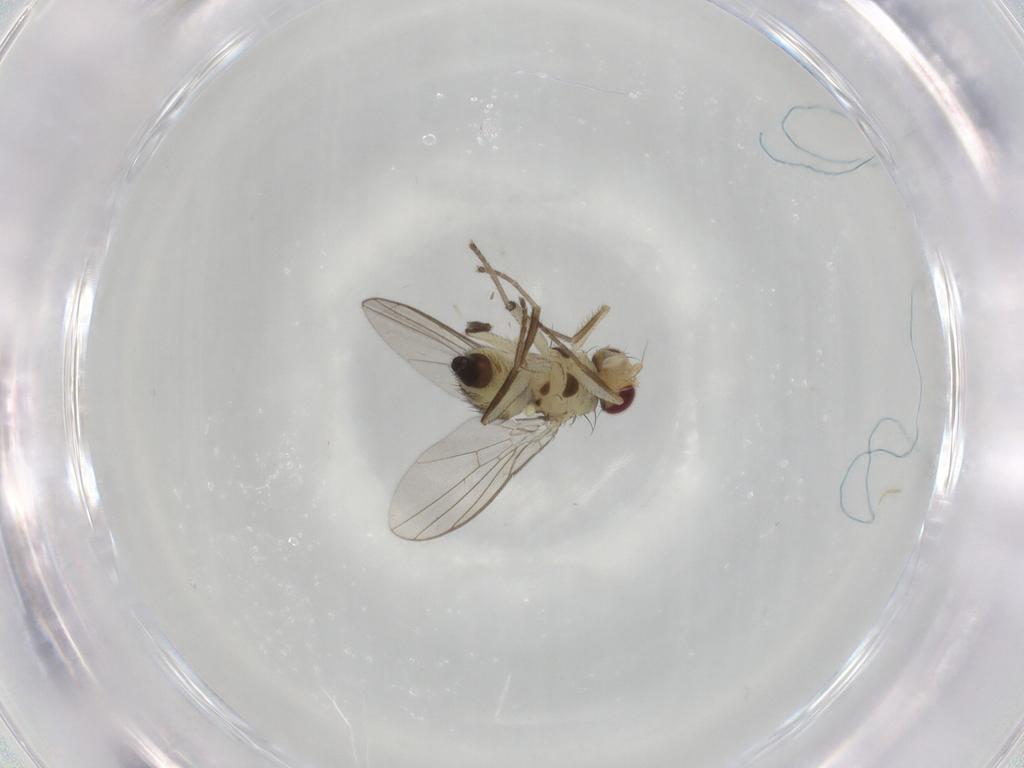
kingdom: Animalia
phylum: Arthropoda
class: Insecta
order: Diptera
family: Agromyzidae
